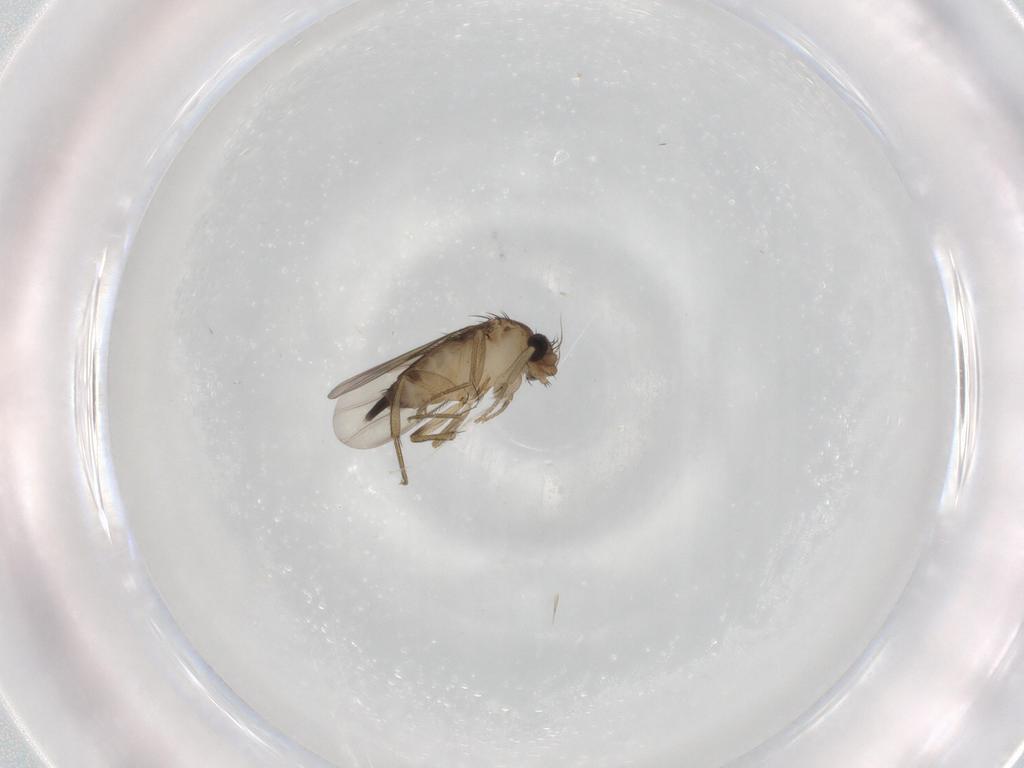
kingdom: Animalia
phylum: Arthropoda
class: Insecta
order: Diptera
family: Phoridae
